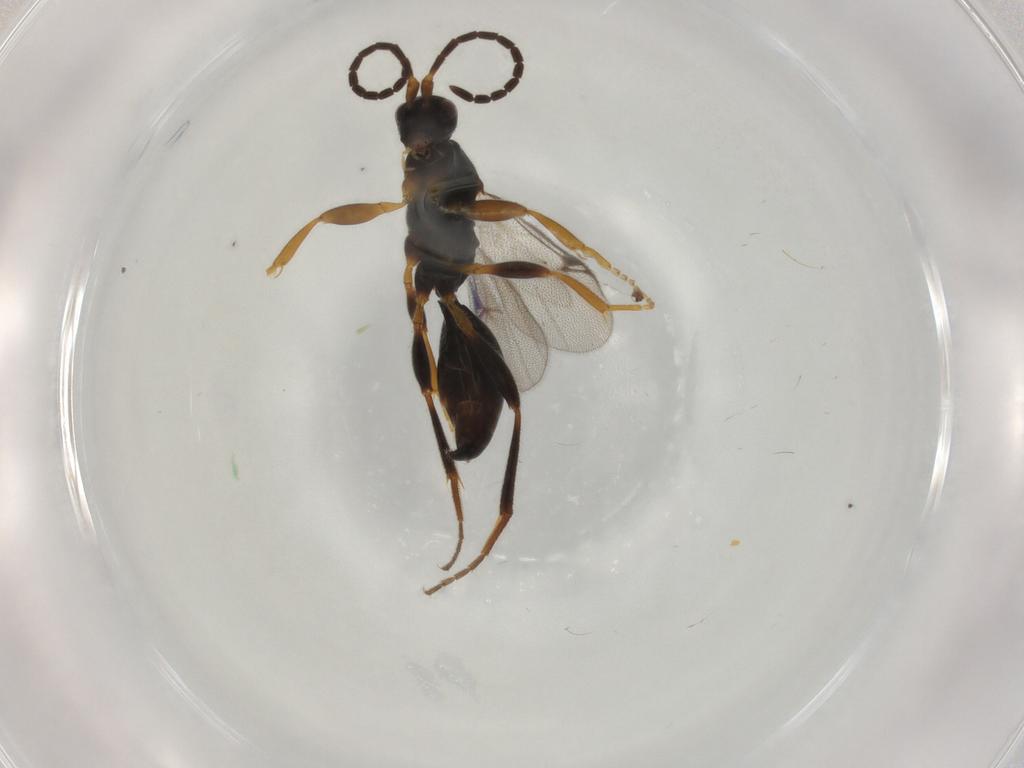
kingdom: Animalia
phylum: Arthropoda
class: Insecta
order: Hymenoptera
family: Proctotrupidae
